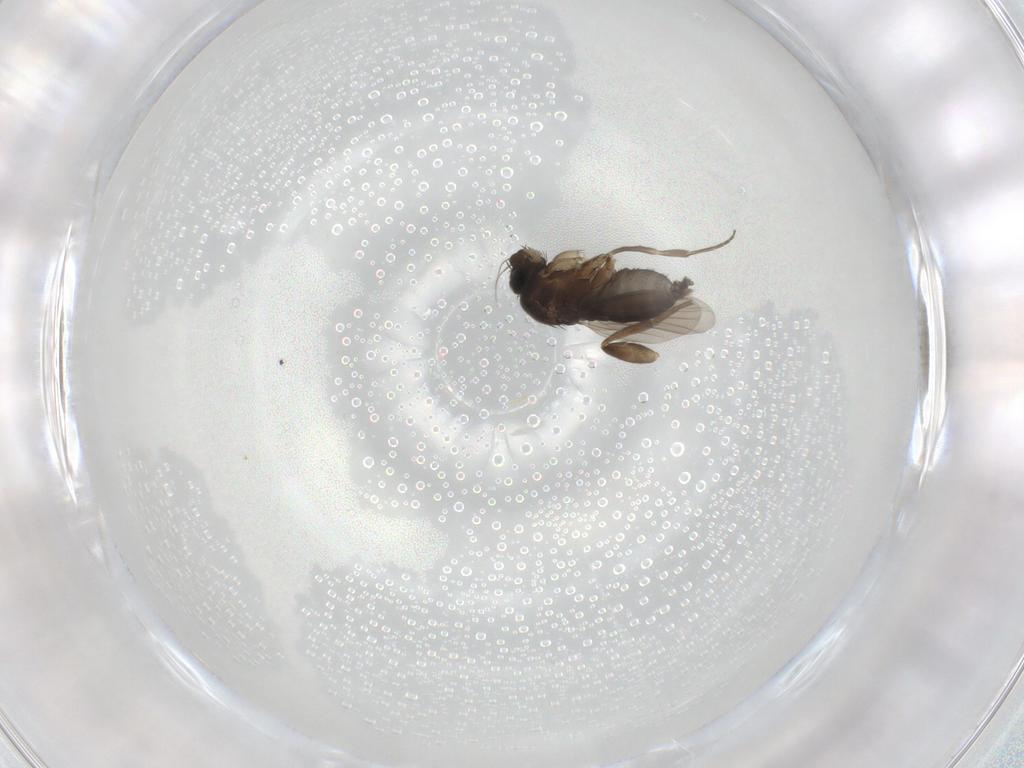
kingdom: Animalia
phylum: Arthropoda
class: Insecta
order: Diptera
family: Phoridae
